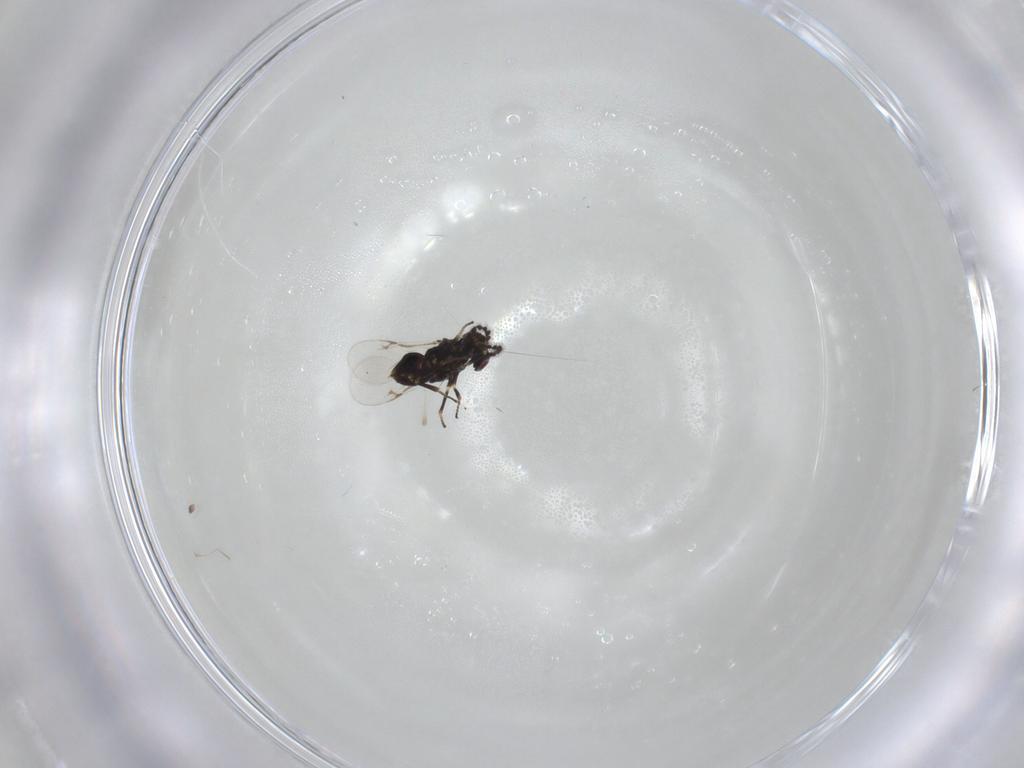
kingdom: Animalia
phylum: Arthropoda
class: Insecta
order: Hymenoptera
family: Encyrtidae
